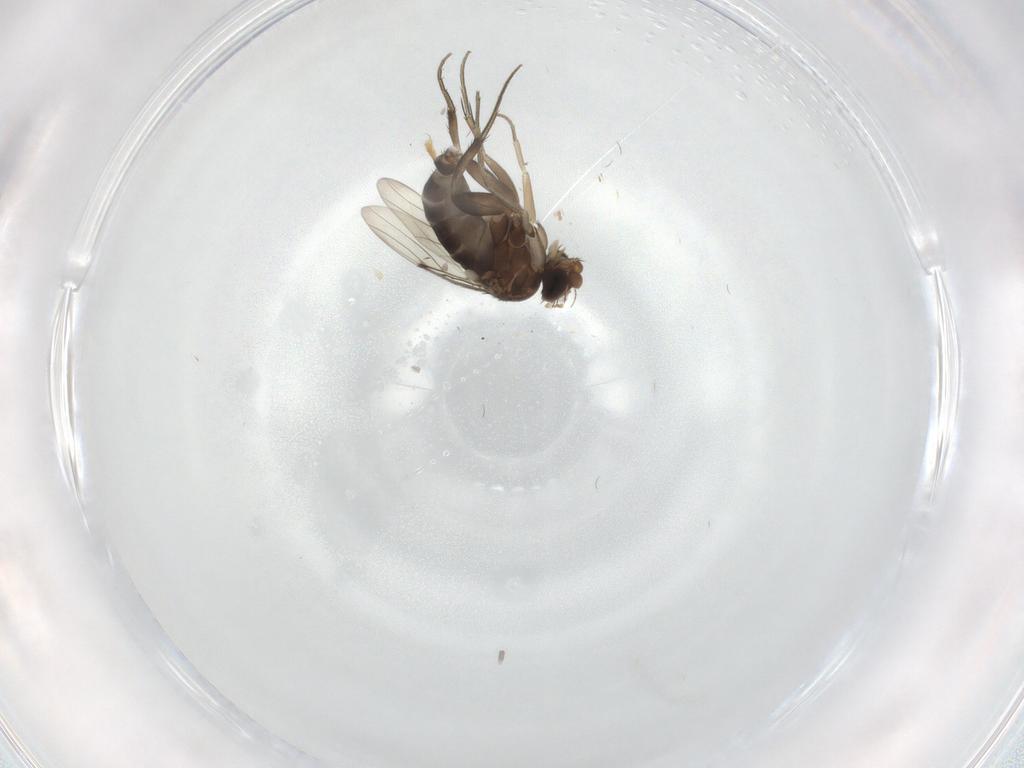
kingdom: Animalia
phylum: Arthropoda
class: Insecta
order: Diptera
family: Phoridae
